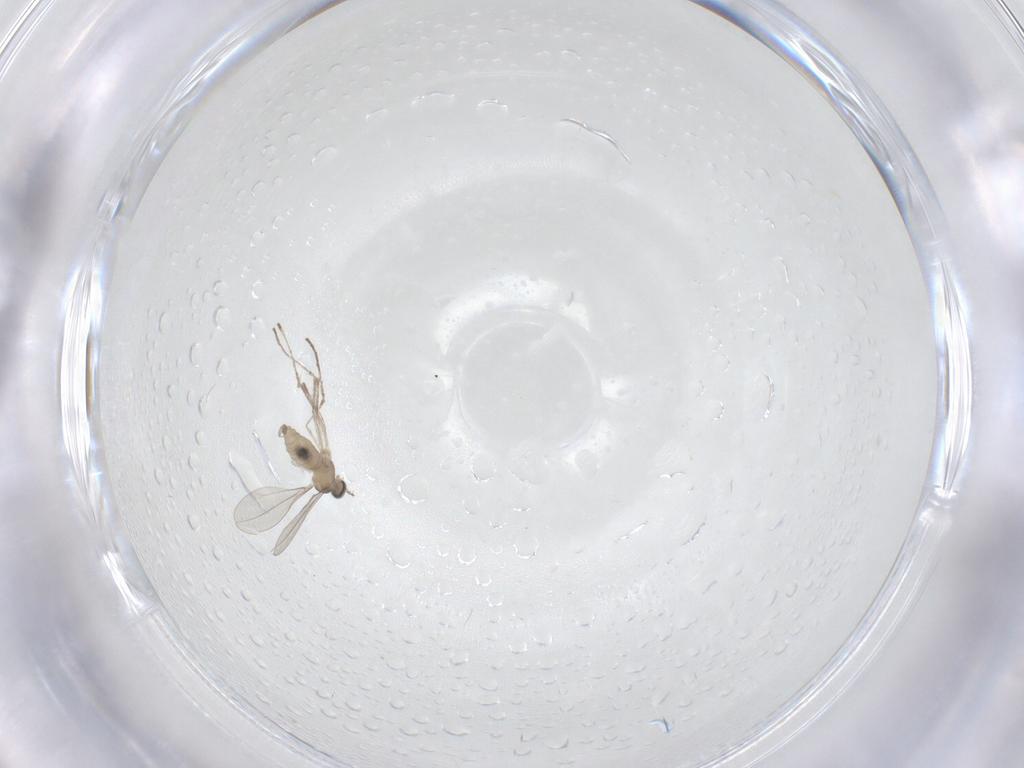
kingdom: Animalia
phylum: Arthropoda
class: Insecta
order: Diptera
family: Cecidomyiidae
